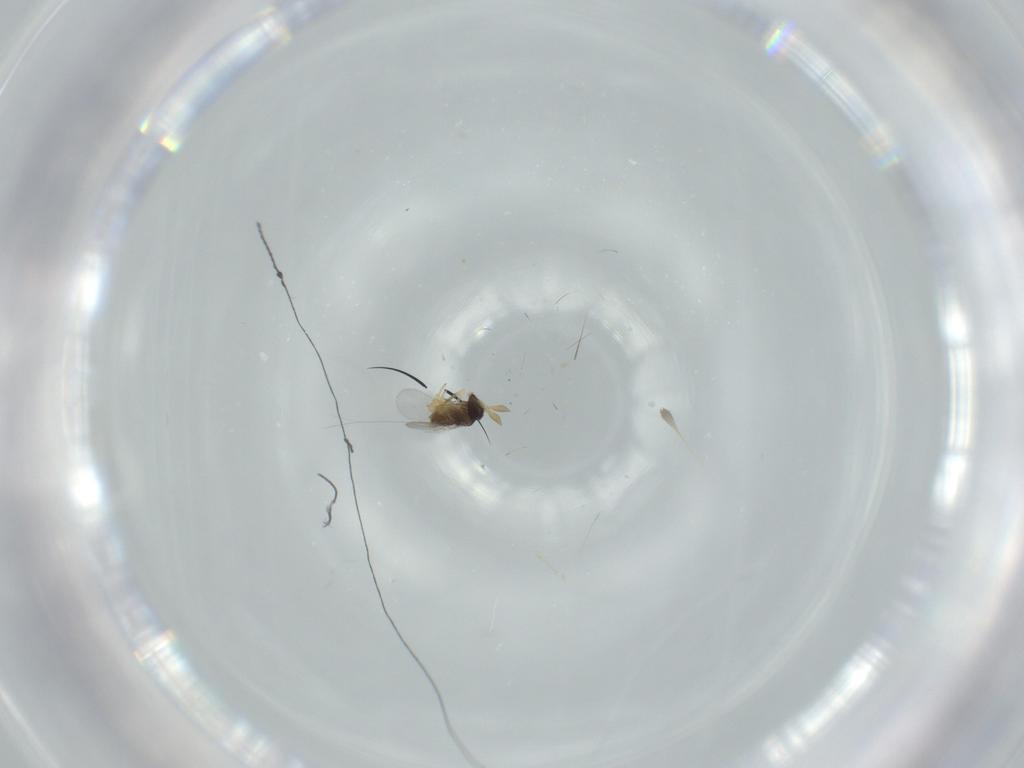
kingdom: Animalia
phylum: Arthropoda
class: Insecta
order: Hymenoptera
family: Encyrtidae
